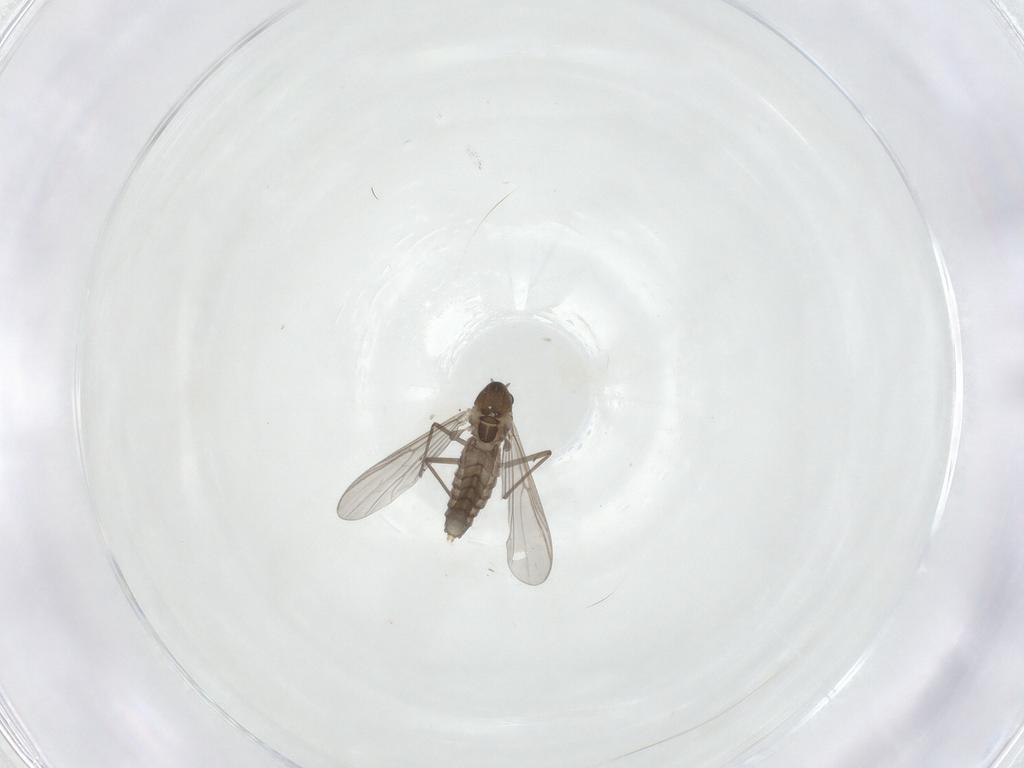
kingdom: Animalia
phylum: Arthropoda
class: Insecta
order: Diptera
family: Chironomidae
